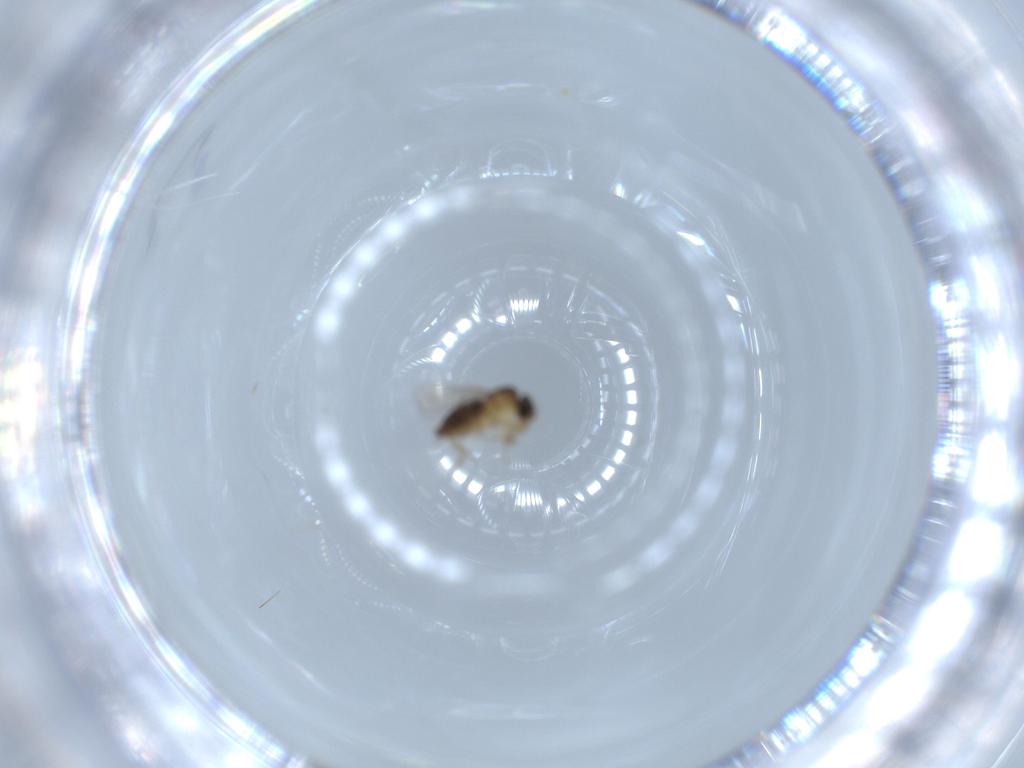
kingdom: Animalia
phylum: Arthropoda
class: Insecta
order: Diptera
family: Phoridae
